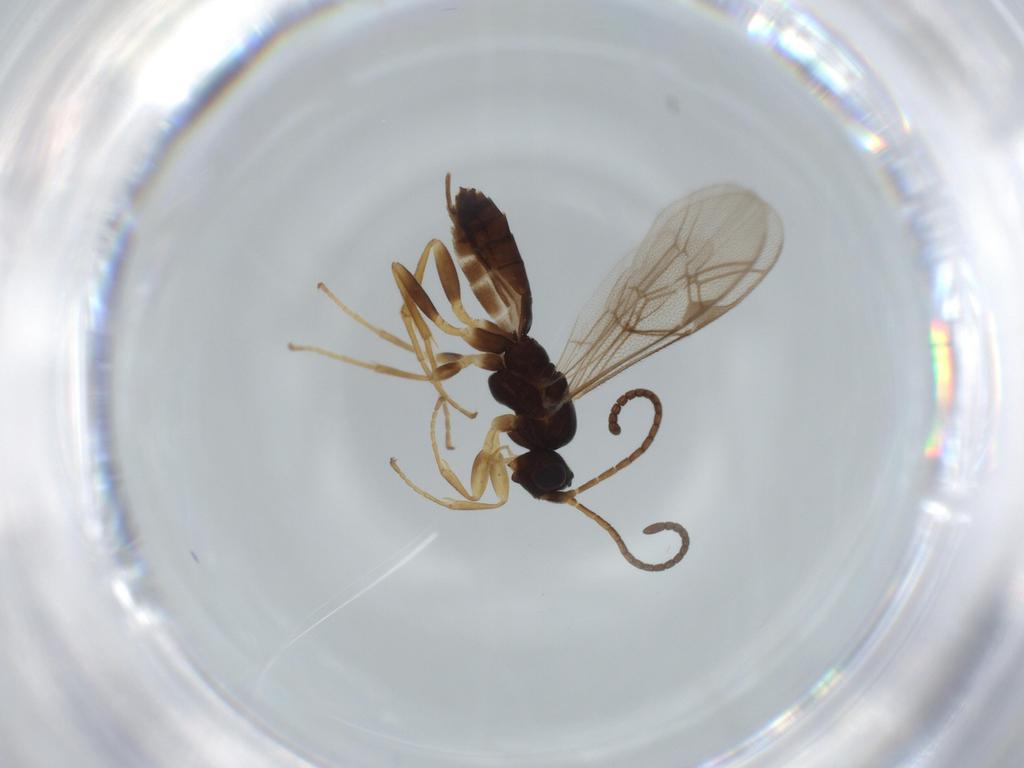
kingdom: Animalia
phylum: Arthropoda
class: Insecta
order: Hymenoptera
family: Ichneumonidae
